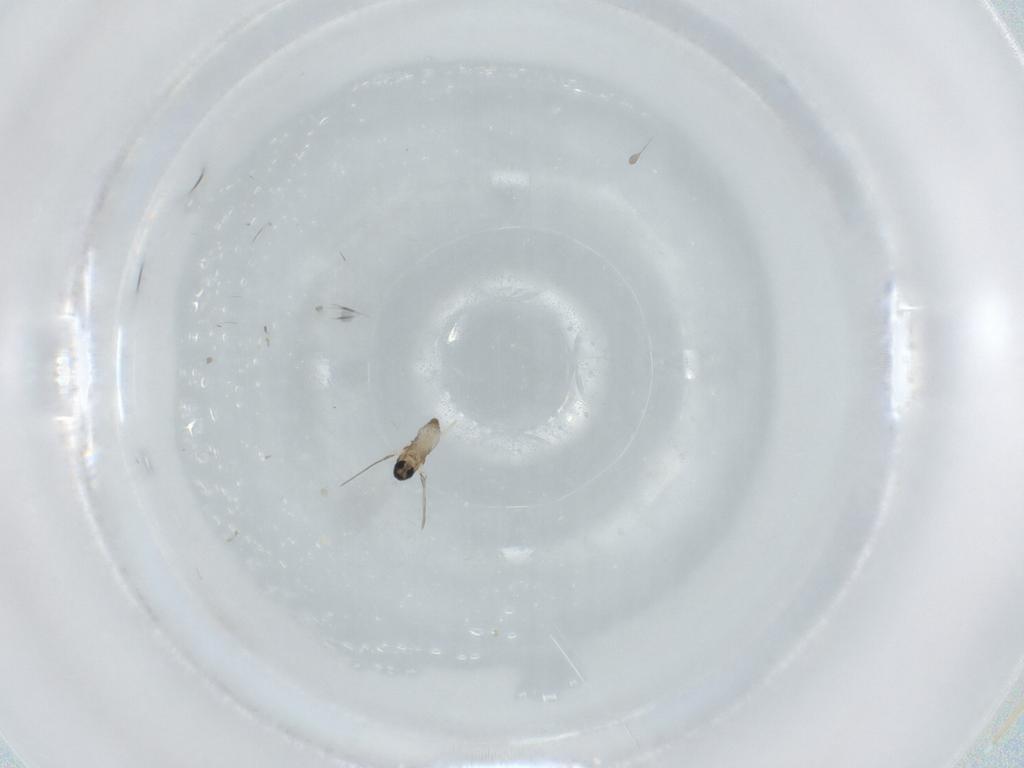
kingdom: Animalia
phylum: Arthropoda
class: Insecta
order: Diptera
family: Cecidomyiidae
